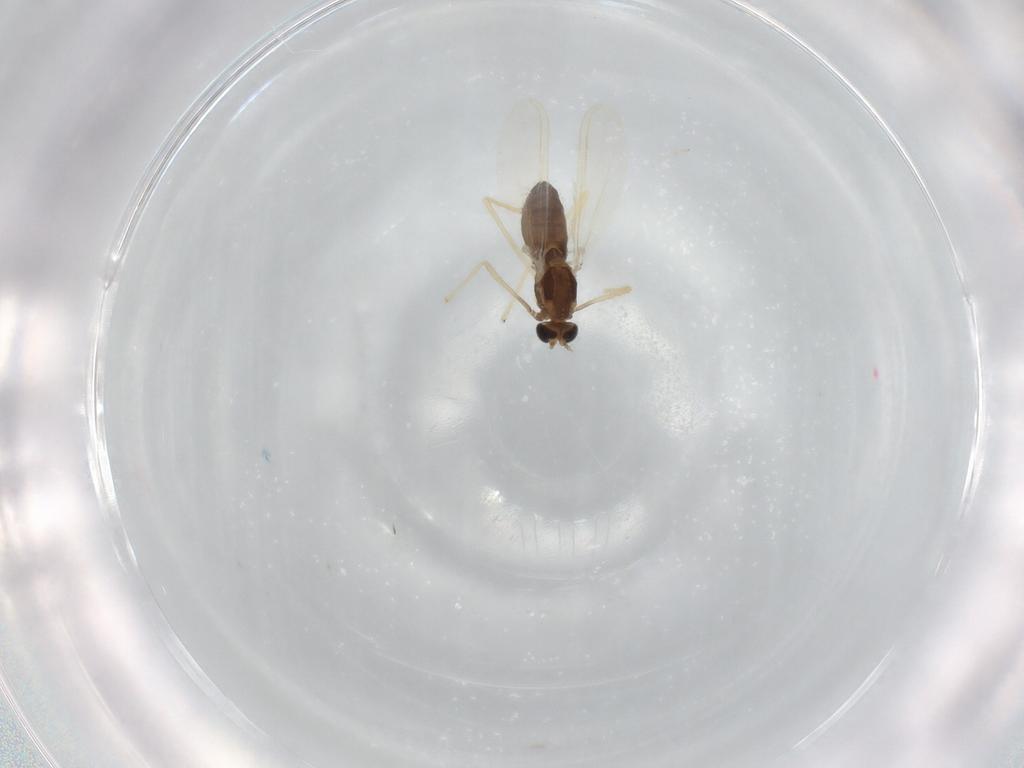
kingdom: Animalia
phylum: Arthropoda
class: Insecta
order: Diptera
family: Chironomidae
